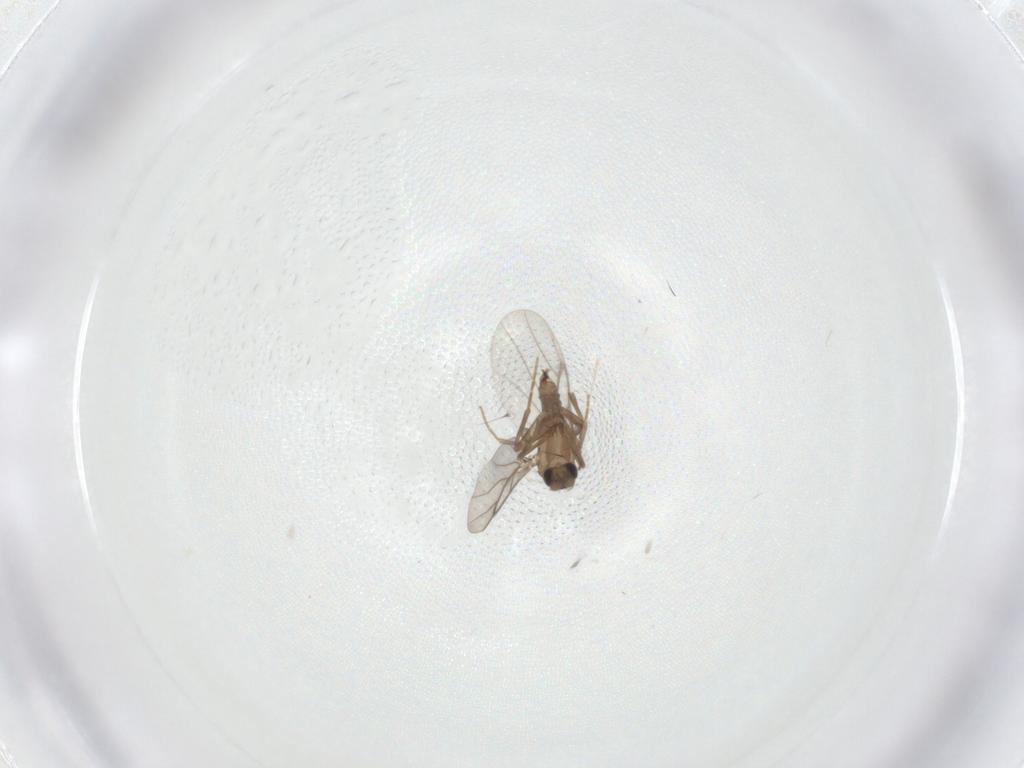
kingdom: Animalia
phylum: Arthropoda
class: Insecta
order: Diptera
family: Chironomidae
